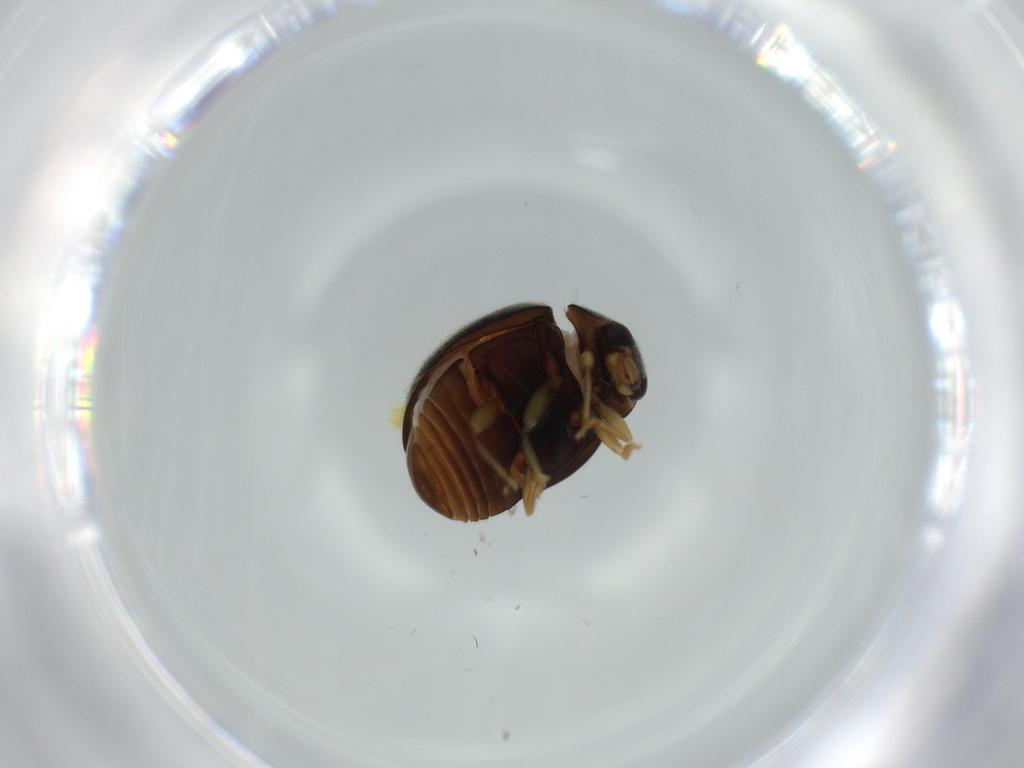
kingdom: Animalia
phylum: Arthropoda
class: Insecta
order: Coleoptera
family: Coccinellidae
